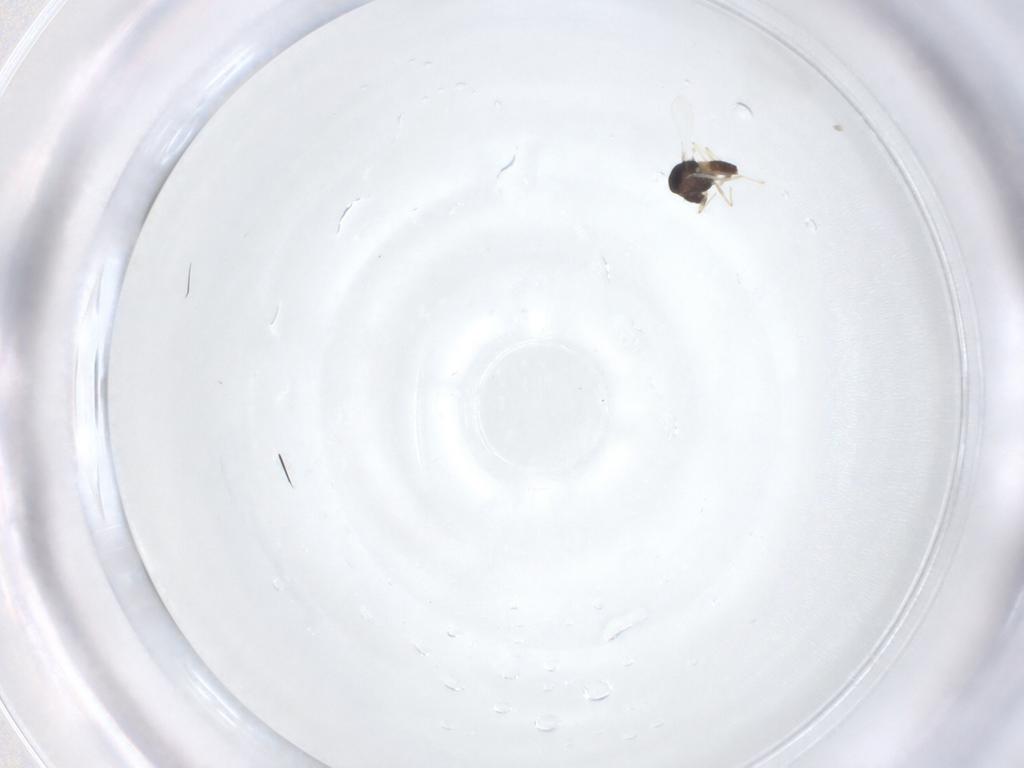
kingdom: Animalia
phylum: Arthropoda
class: Insecta
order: Diptera
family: Chironomidae
